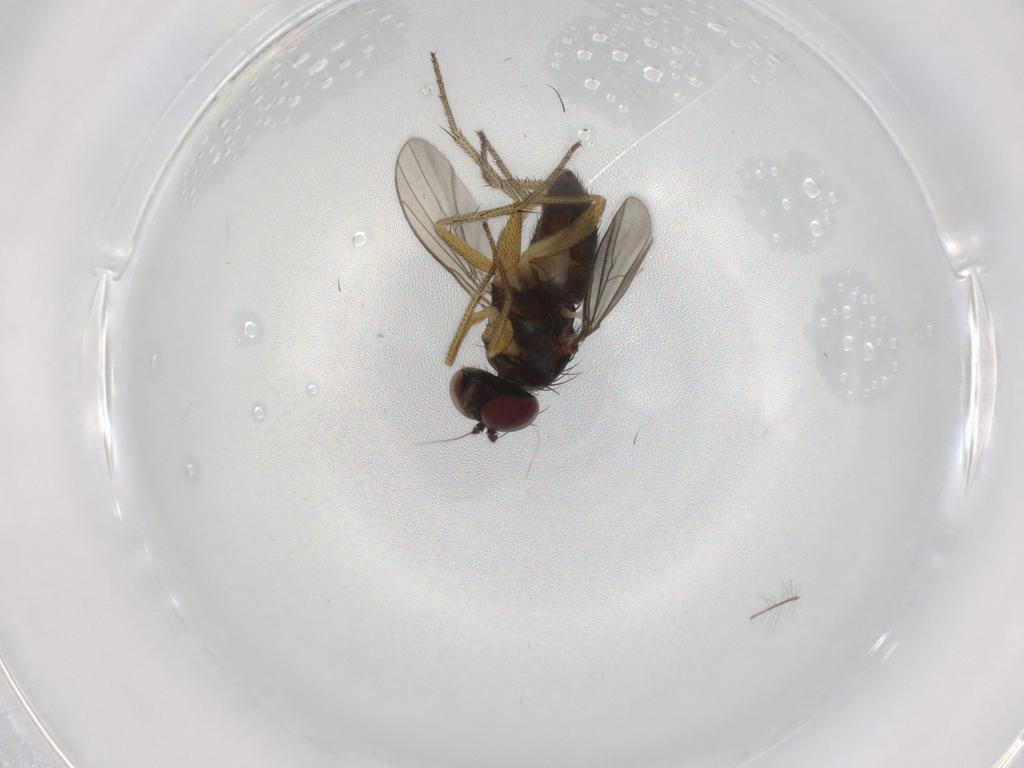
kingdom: Animalia
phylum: Arthropoda
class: Insecta
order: Diptera
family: Dolichopodidae
